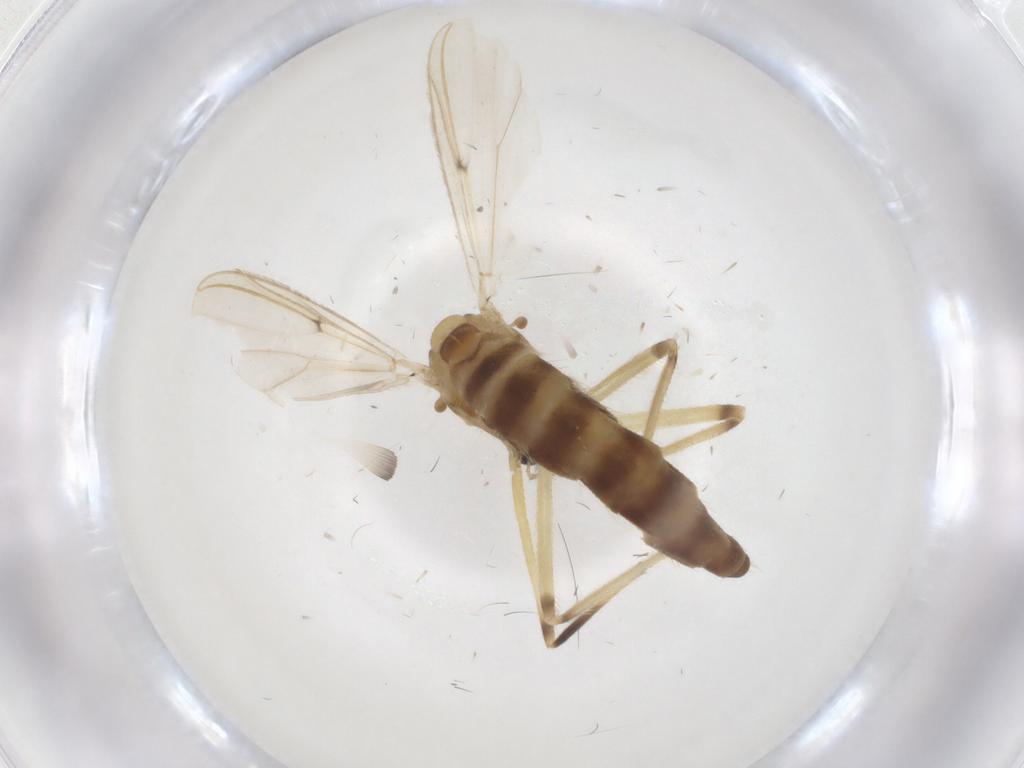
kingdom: Animalia
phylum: Arthropoda
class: Insecta
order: Diptera
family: Chironomidae
